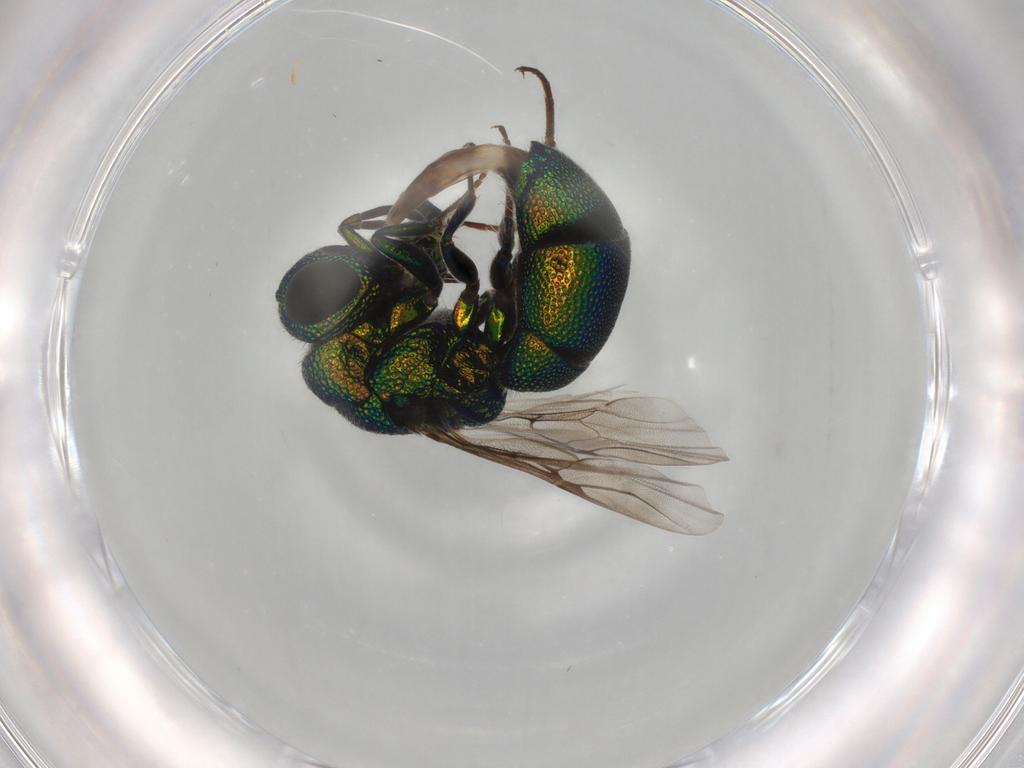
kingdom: Animalia
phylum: Arthropoda
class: Insecta
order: Hymenoptera
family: Chrysididae
